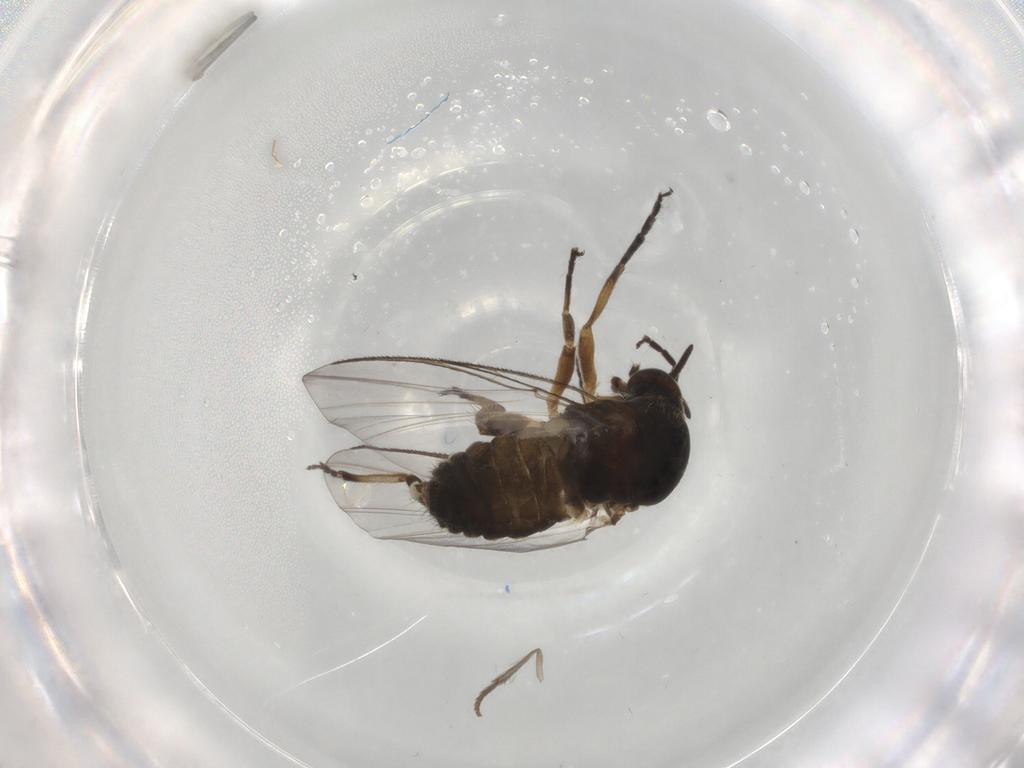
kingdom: Animalia
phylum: Arthropoda
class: Insecta
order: Diptera
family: Simuliidae
